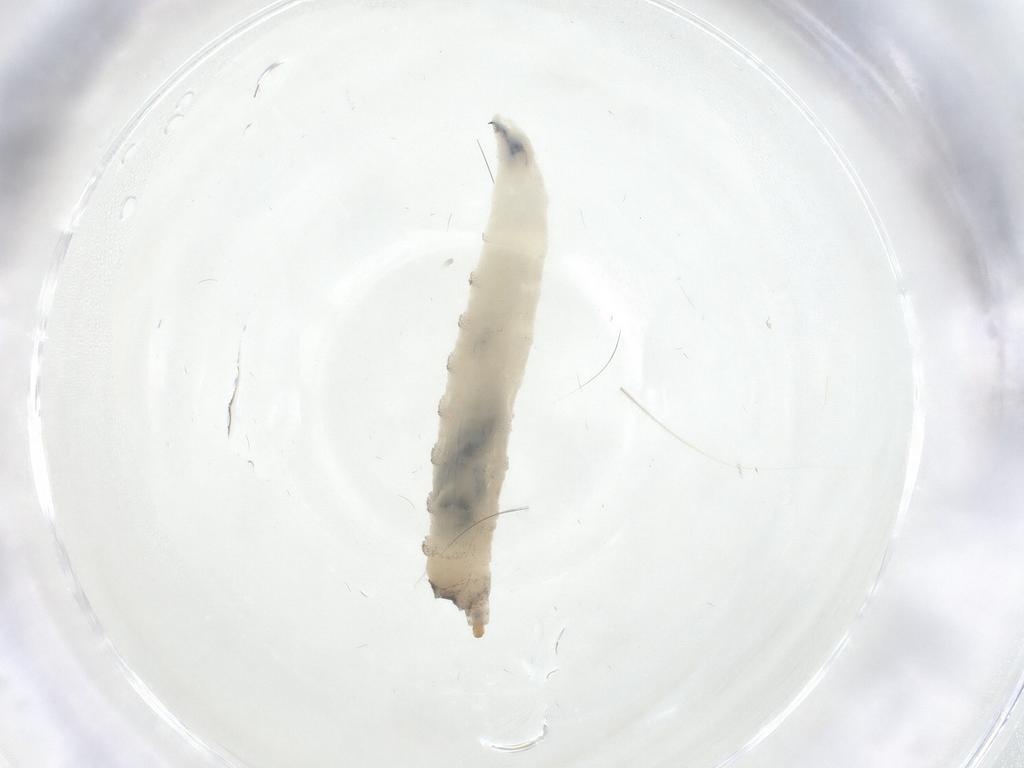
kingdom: Animalia
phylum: Arthropoda
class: Insecta
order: Diptera
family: Drosophilidae
